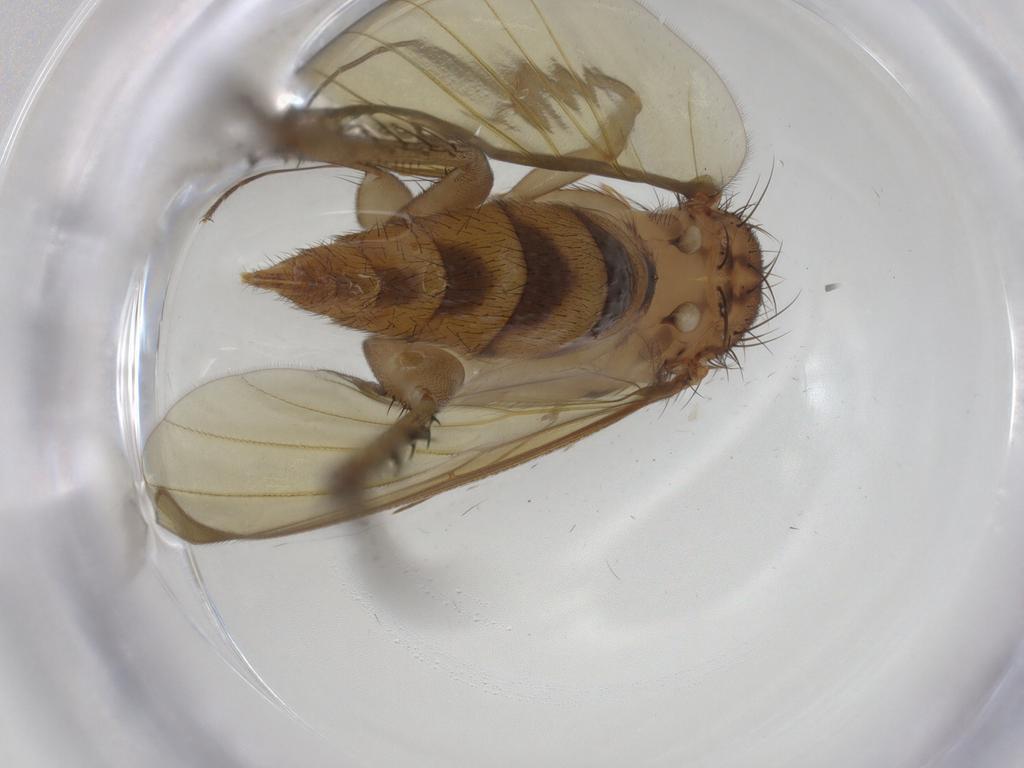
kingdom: Animalia
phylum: Arthropoda
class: Insecta
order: Diptera
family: Mycetophilidae
